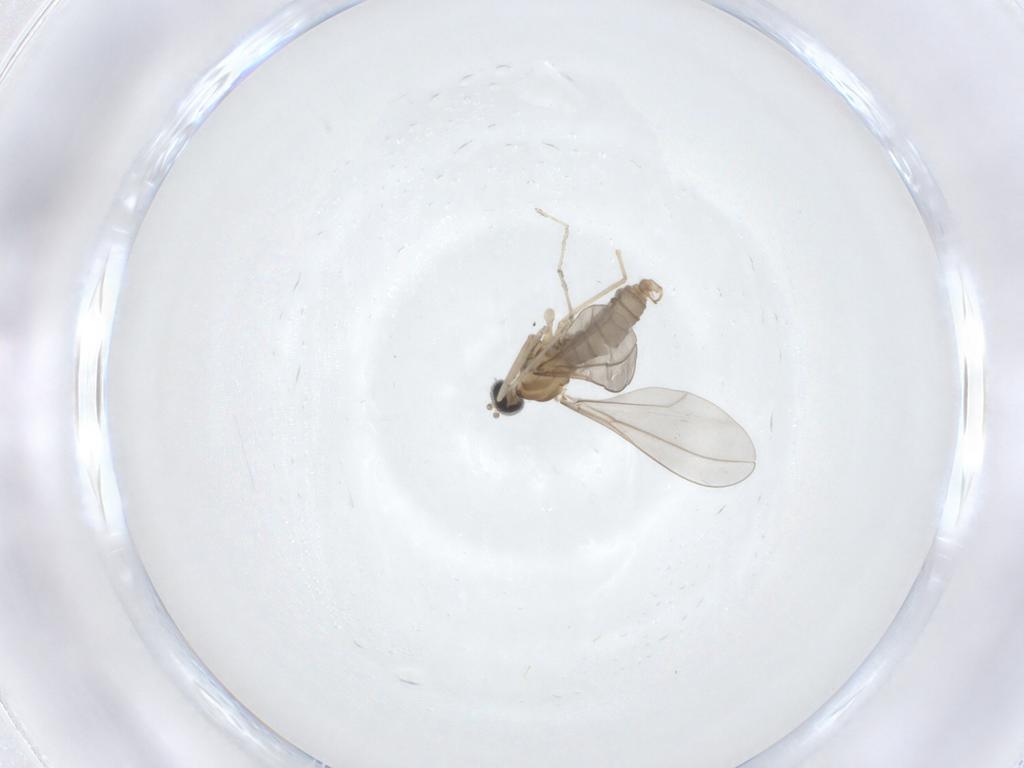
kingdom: Animalia
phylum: Arthropoda
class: Insecta
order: Diptera
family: Cecidomyiidae
